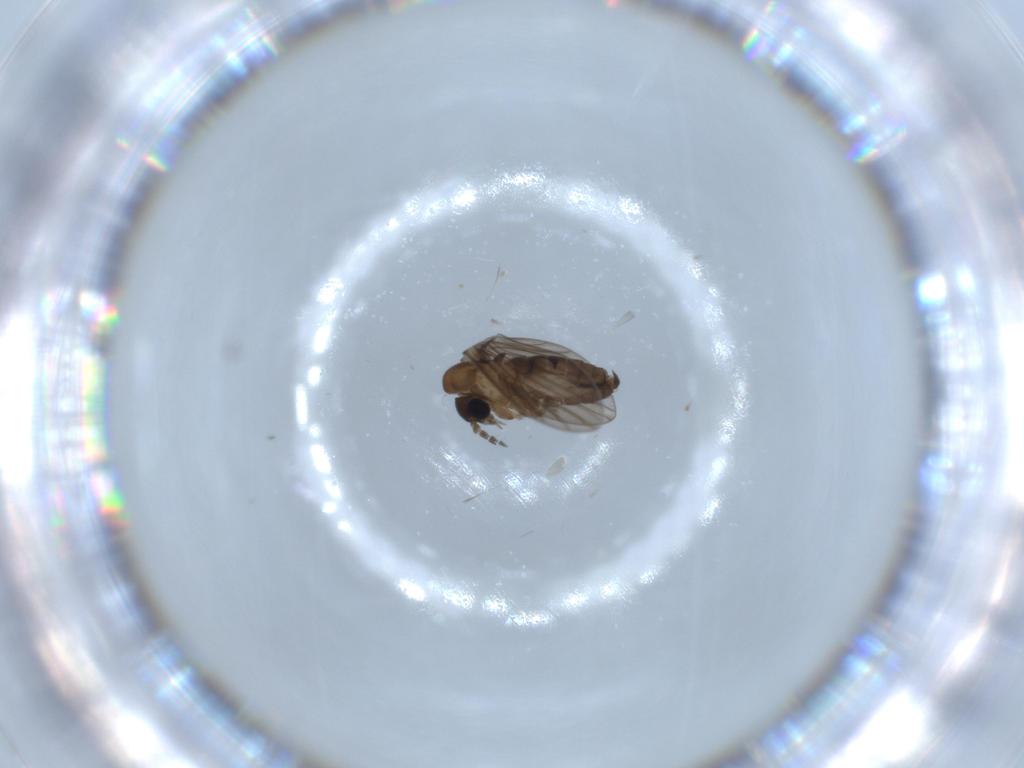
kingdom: Animalia
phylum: Arthropoda
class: Insecta
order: Diptera
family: Psychodidae
